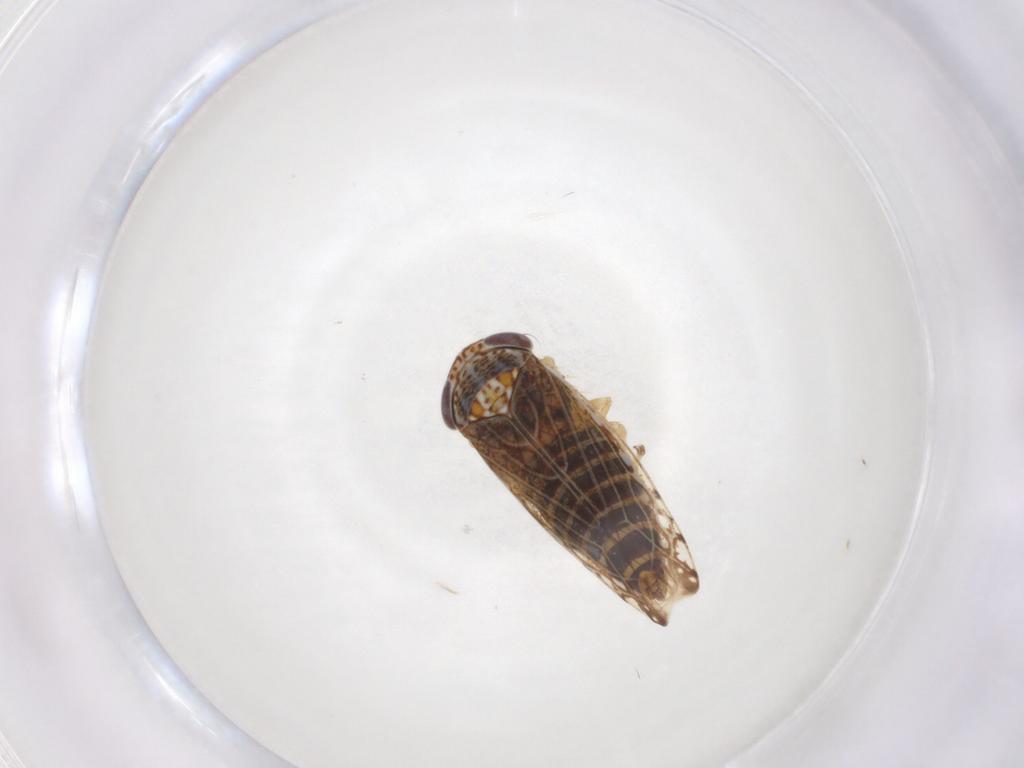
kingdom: Animalia
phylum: Arthropoda
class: Insecta
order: Hemiptera
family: Cicadellidae
